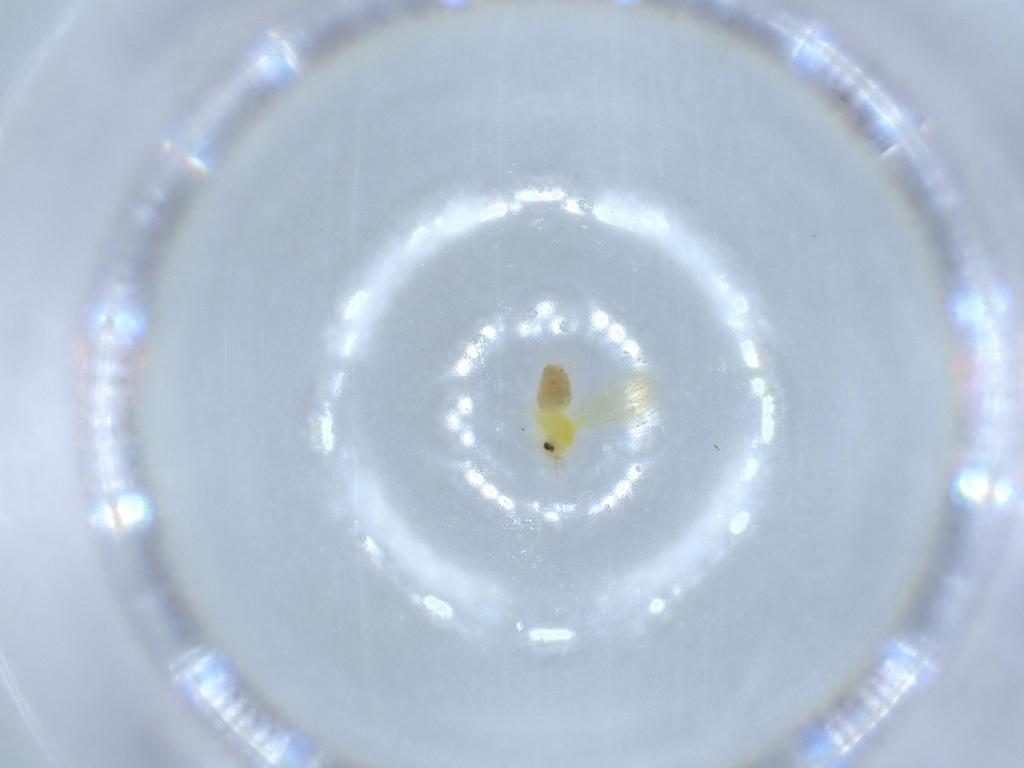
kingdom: Animalia
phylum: Arthropoda
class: Insecta
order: Hemiptera
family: Aleyrodidae
